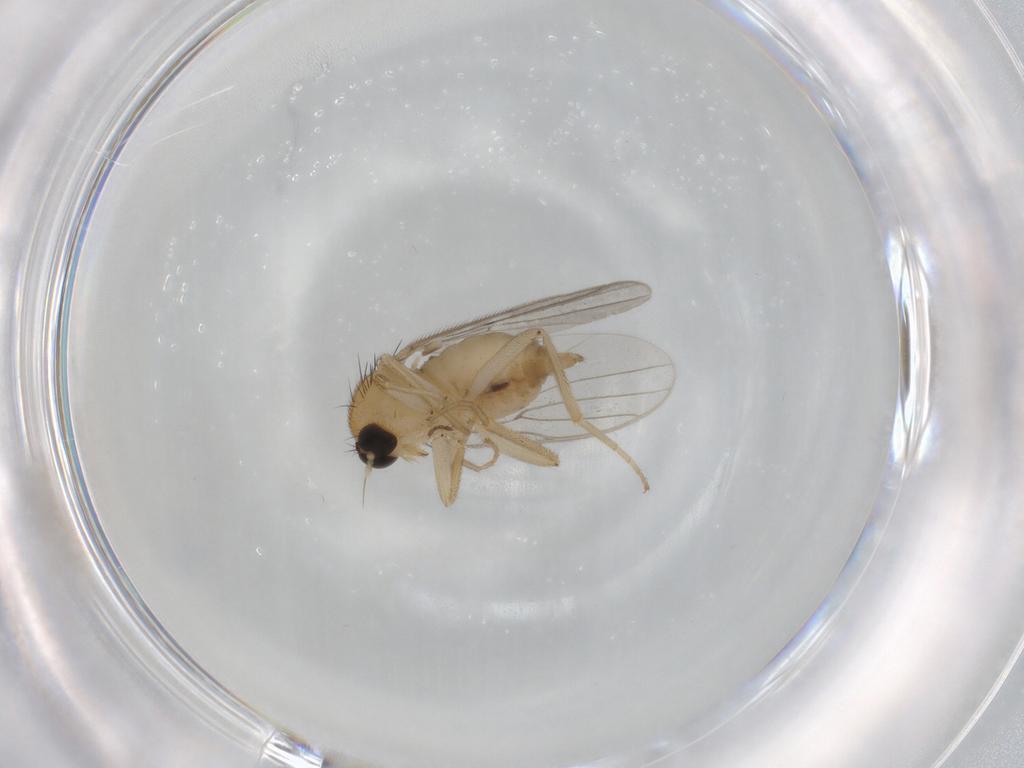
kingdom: Animalia
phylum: Arthropoda
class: Insecta
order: Diptera
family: Hybotidae
